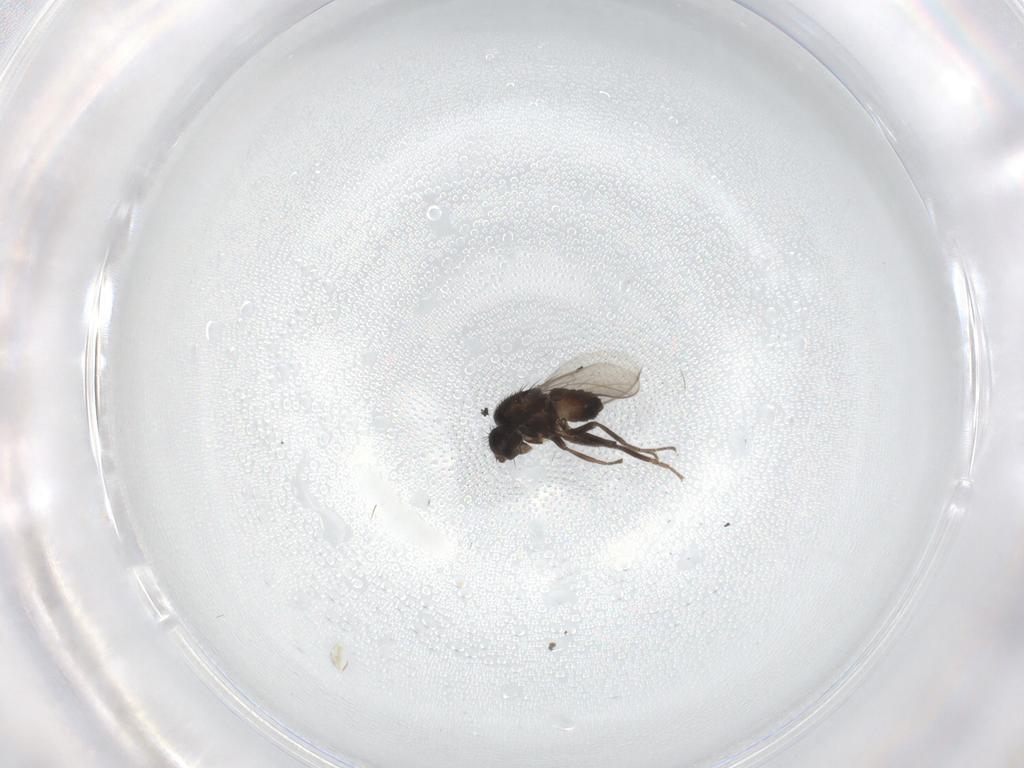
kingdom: Animalia
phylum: Arthropoda
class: Insecta
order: Diptera
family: Sphaeroceridae
